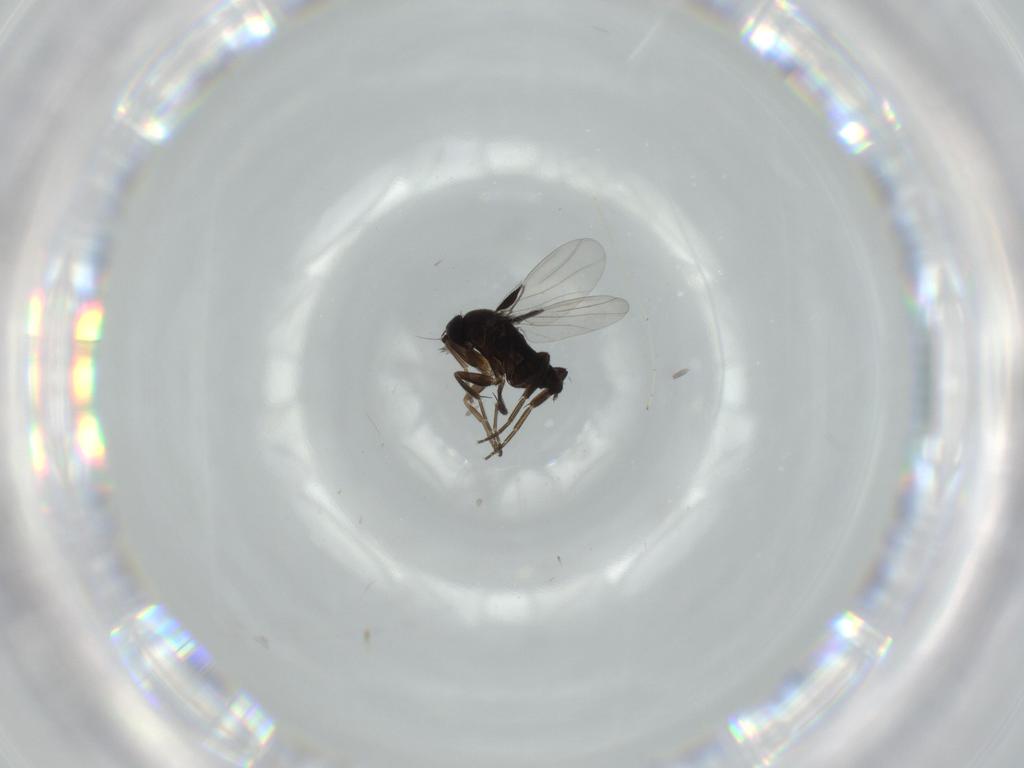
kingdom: Animalia
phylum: Arthropoda
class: Insecta
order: Diptera
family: Phoridae
